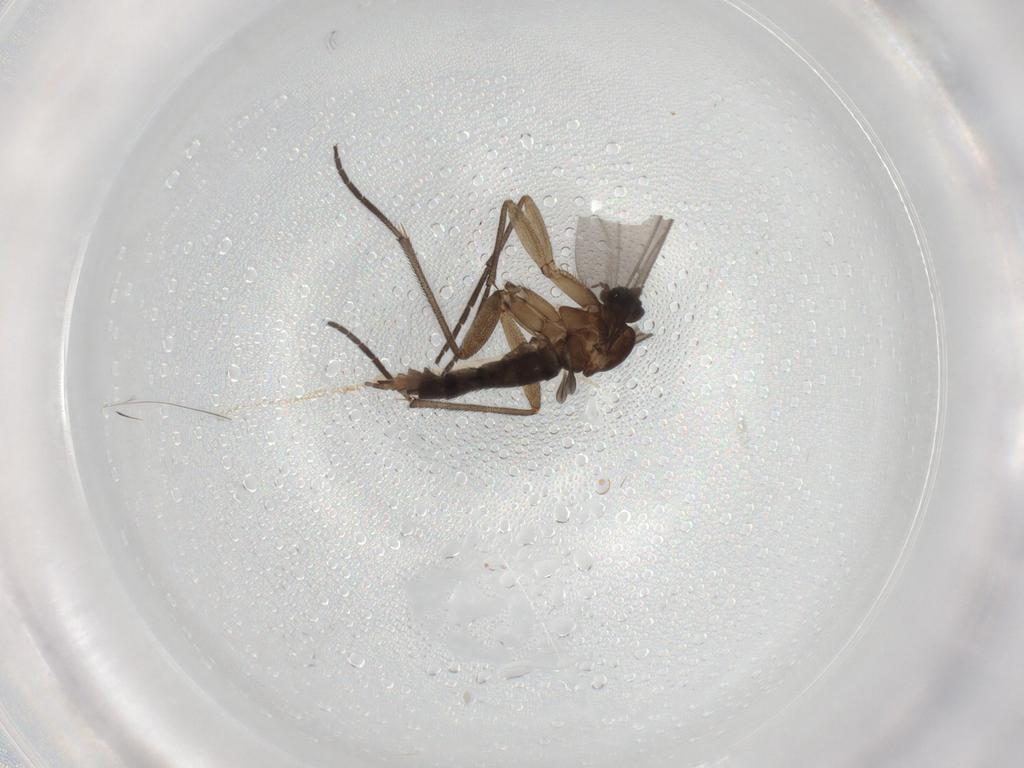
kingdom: Animalia
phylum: Arthropoda
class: Insecta
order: Diptera
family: Sciaridae
